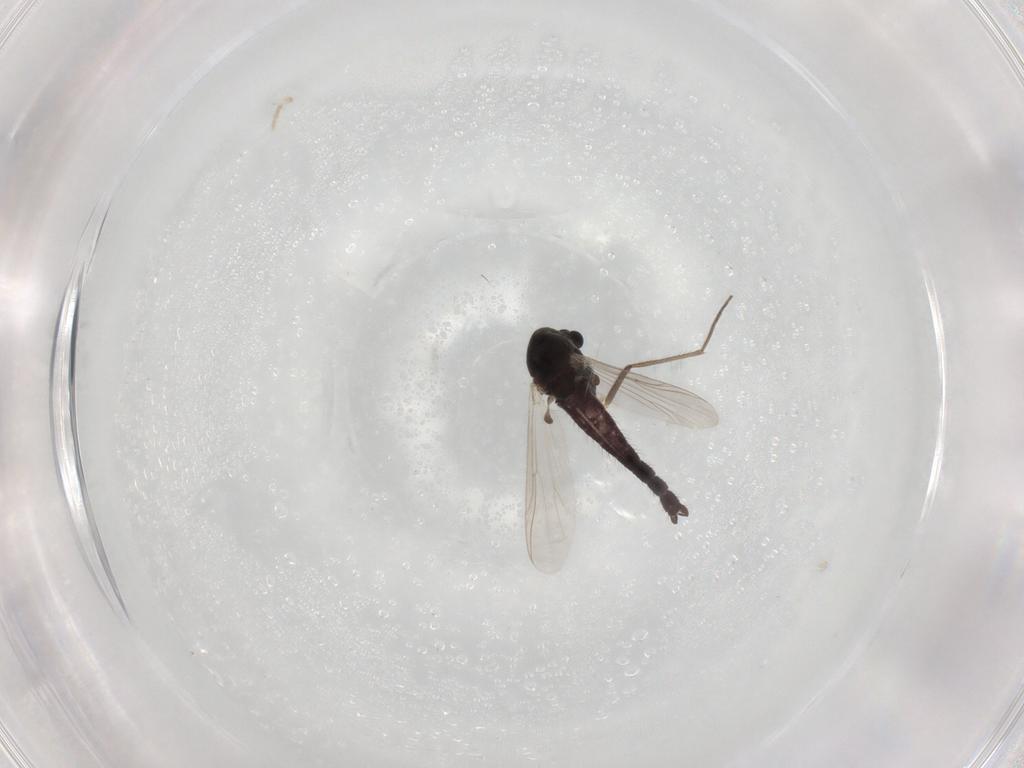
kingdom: Animalia
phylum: Arthropoda
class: Insecta
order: Diptera
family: Chironomidae
